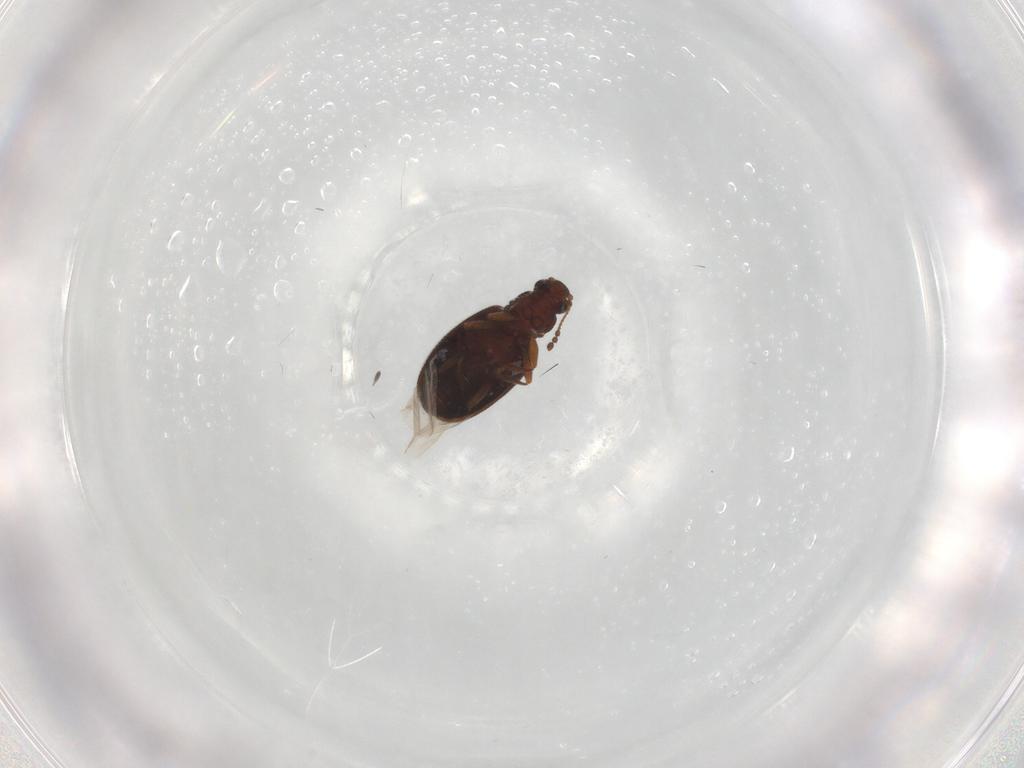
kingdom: Animalia
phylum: Arthropoda
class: Insecta
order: Coleoptera
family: Latridiidae
